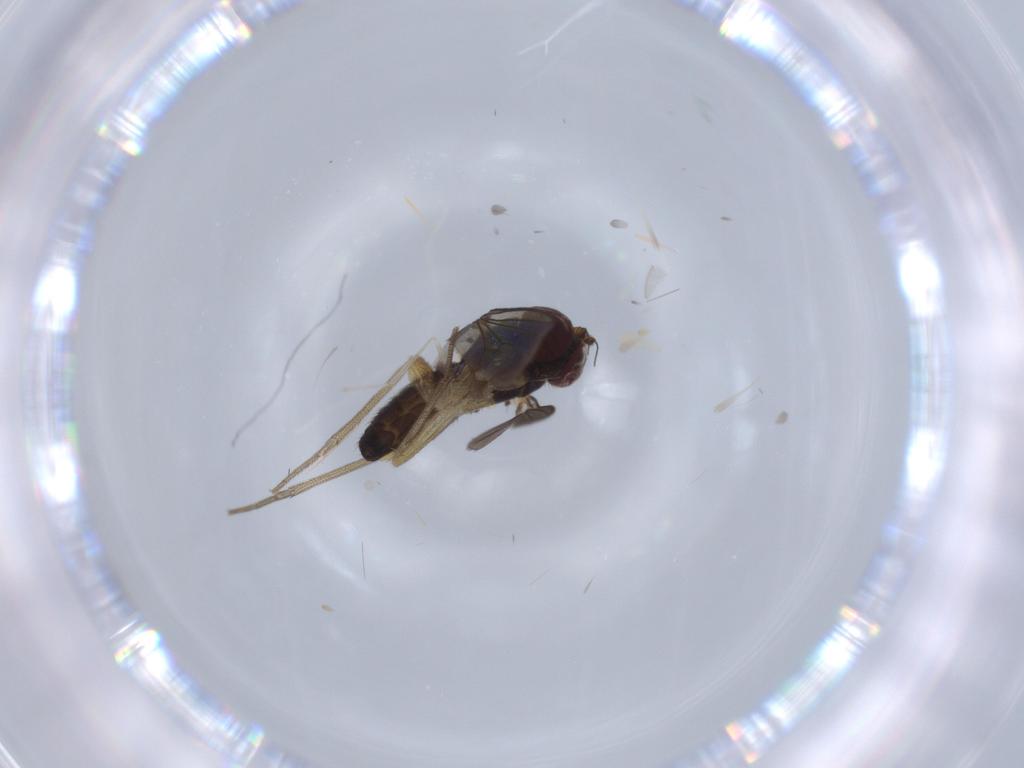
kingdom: Animalia
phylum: Arthropoda
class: Insecta
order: Diptera
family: Dolichopodidae
